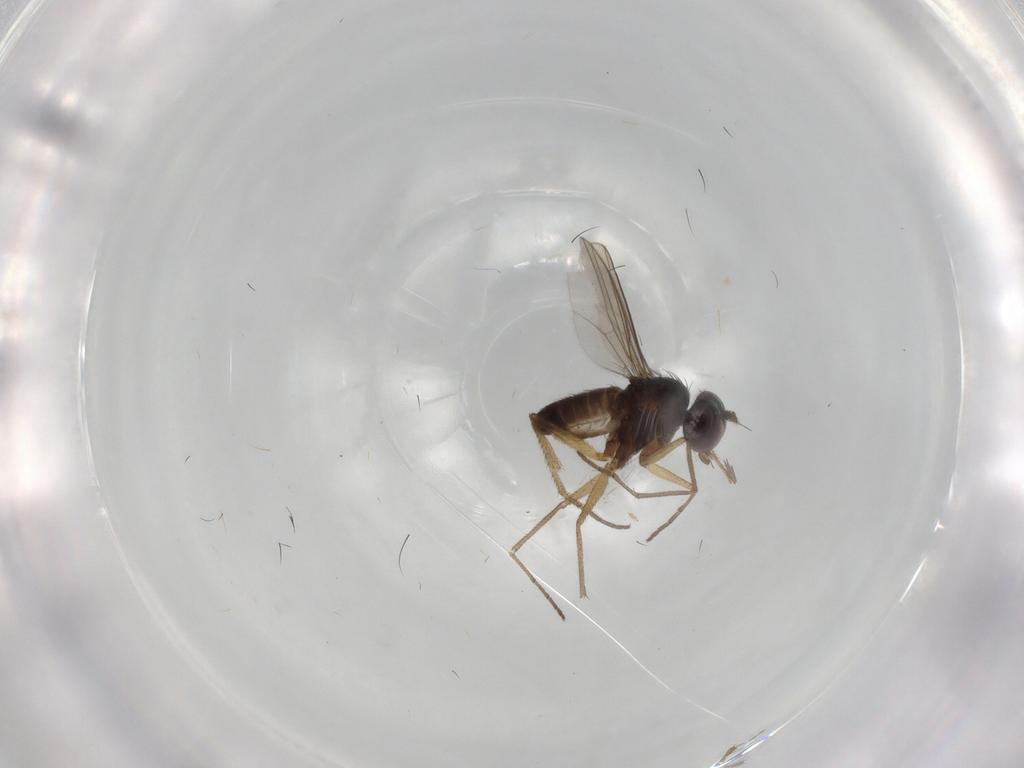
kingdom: Animalia
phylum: Arthropoda
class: Insecta
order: Diptera
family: Dolichopodidae
